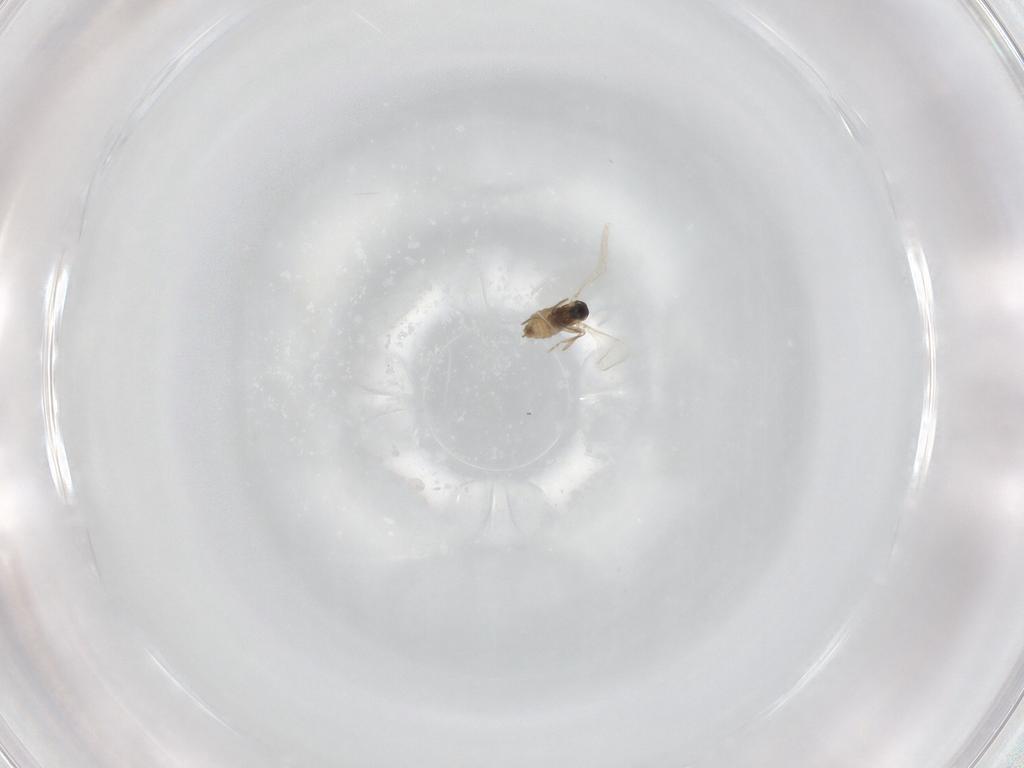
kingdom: Animalia
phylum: Arthropoda
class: Insecta
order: Diptera
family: Cecidomyiidae
